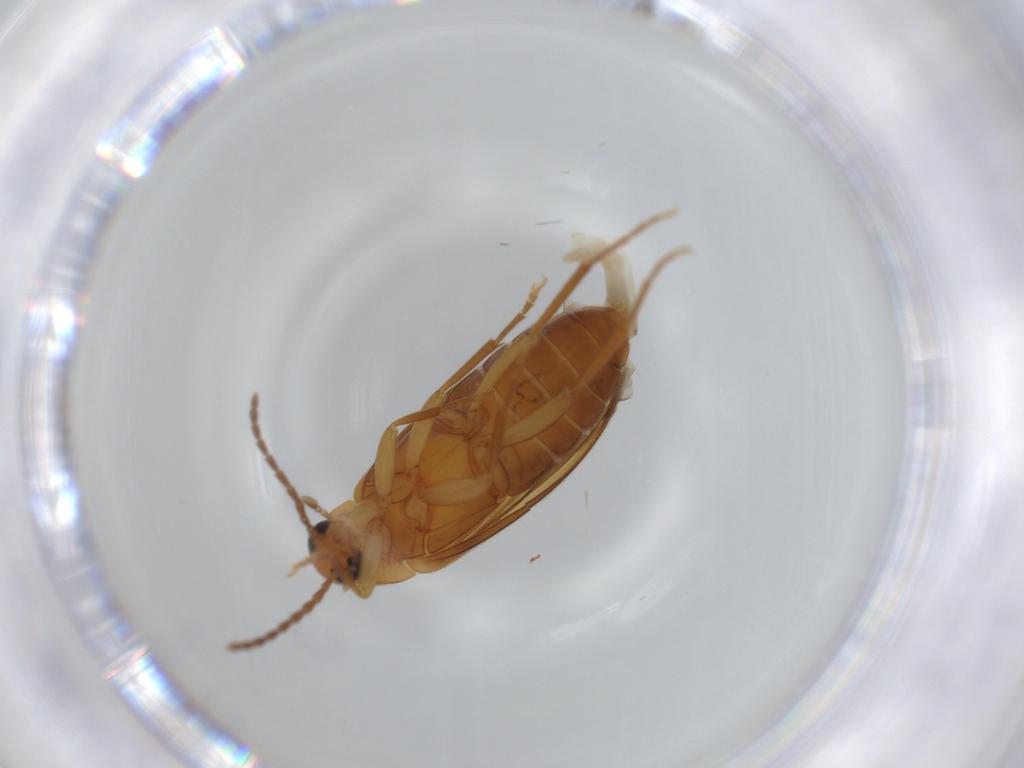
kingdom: Animalia
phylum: Arthropoda
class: Insecta
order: Coleoptera
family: Scraptiidae
